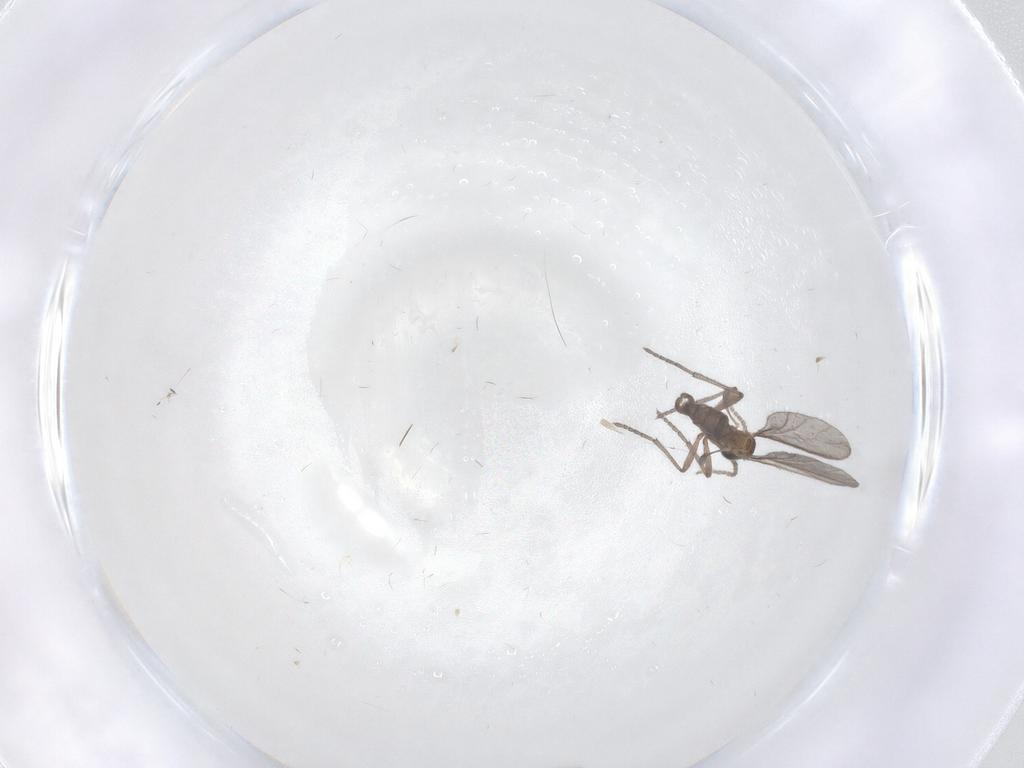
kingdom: Animalia
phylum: Arthropoda
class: Insecta
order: Diptera
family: Sciaridae
